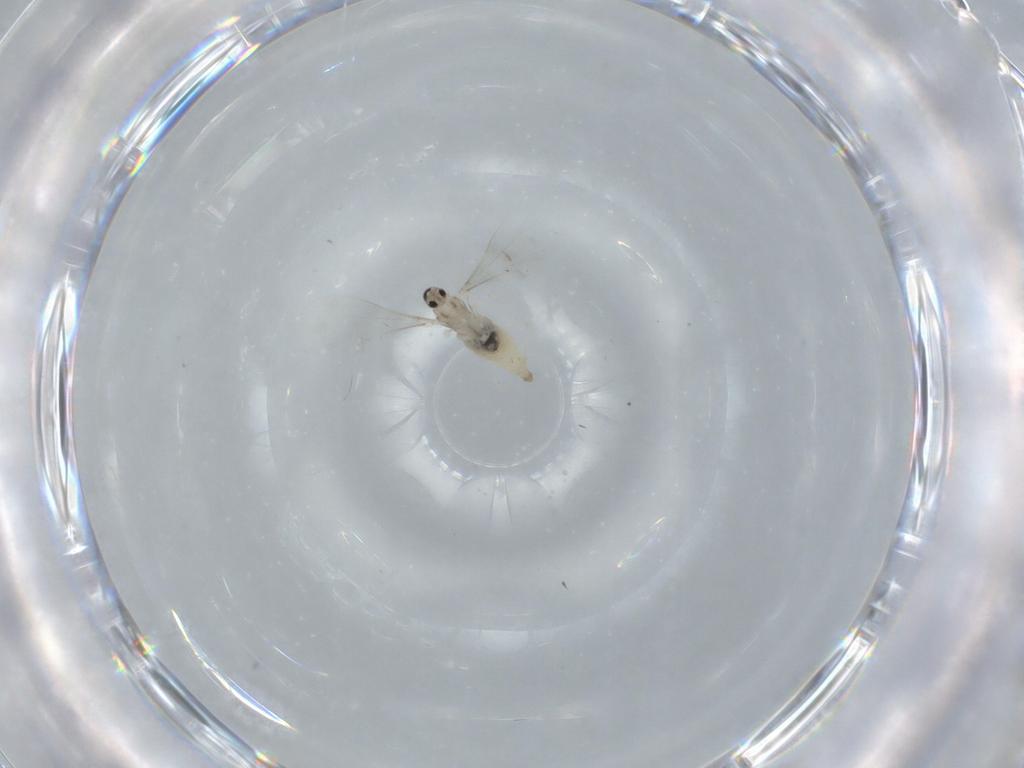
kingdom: Animalia
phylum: Arthropoda
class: Insecta
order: Diptera
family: Cecidomyiidae
